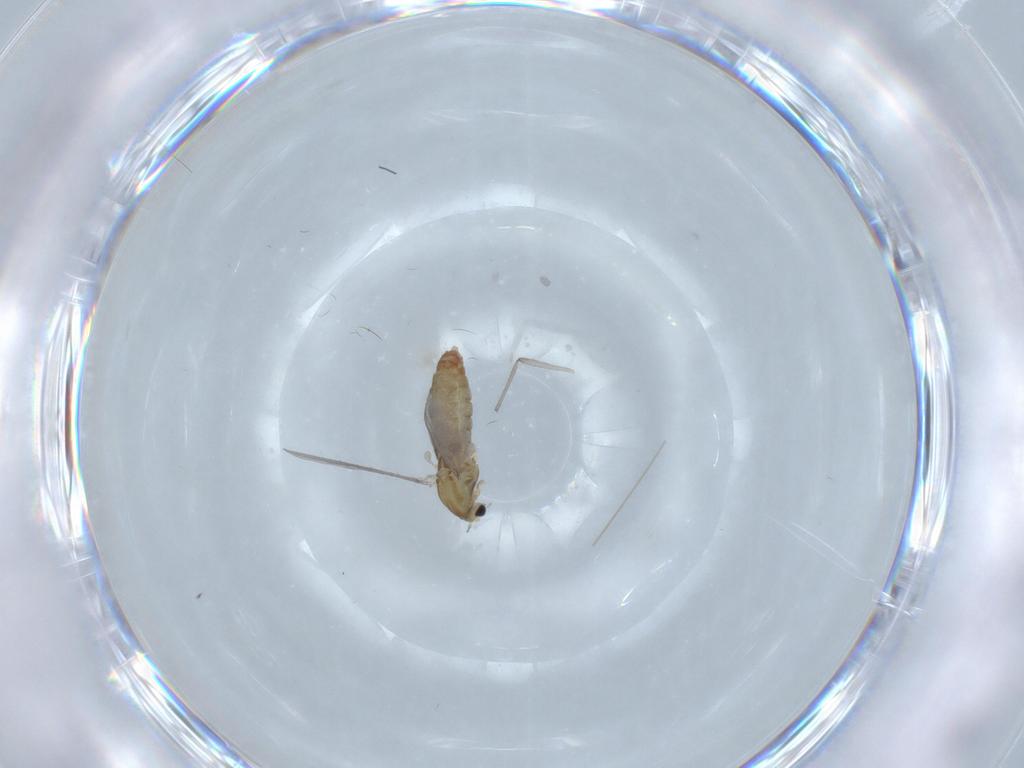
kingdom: Animalia
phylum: Arthropoda
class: Insecta
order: Diptera
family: Chironomidae
